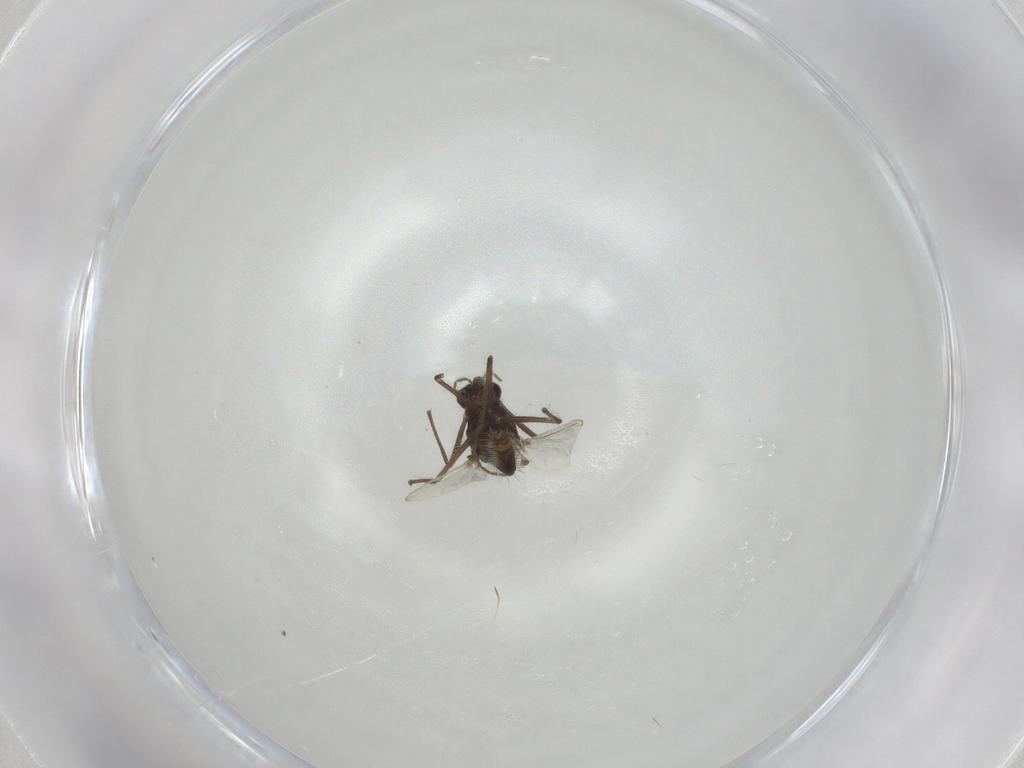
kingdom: Animalia
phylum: Arthropoda
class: Insecta
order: Diptera
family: Chironomidae
